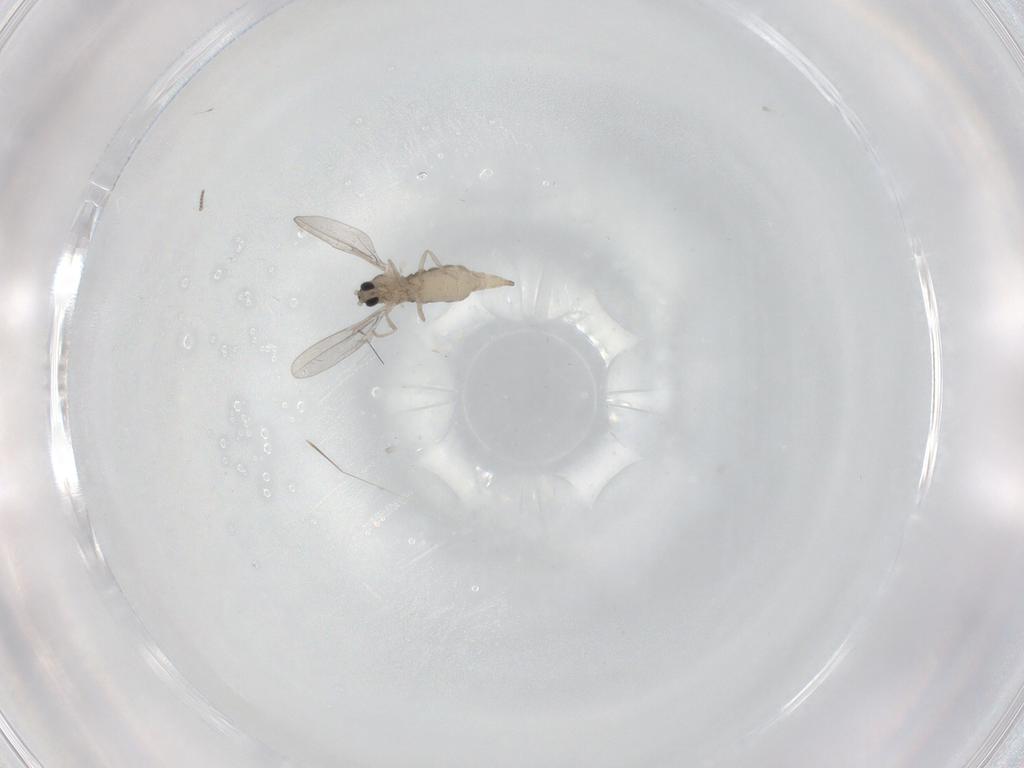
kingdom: Animalia
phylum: Arthropoda
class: Insecta
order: Diptera
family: Cecidomyiidae
